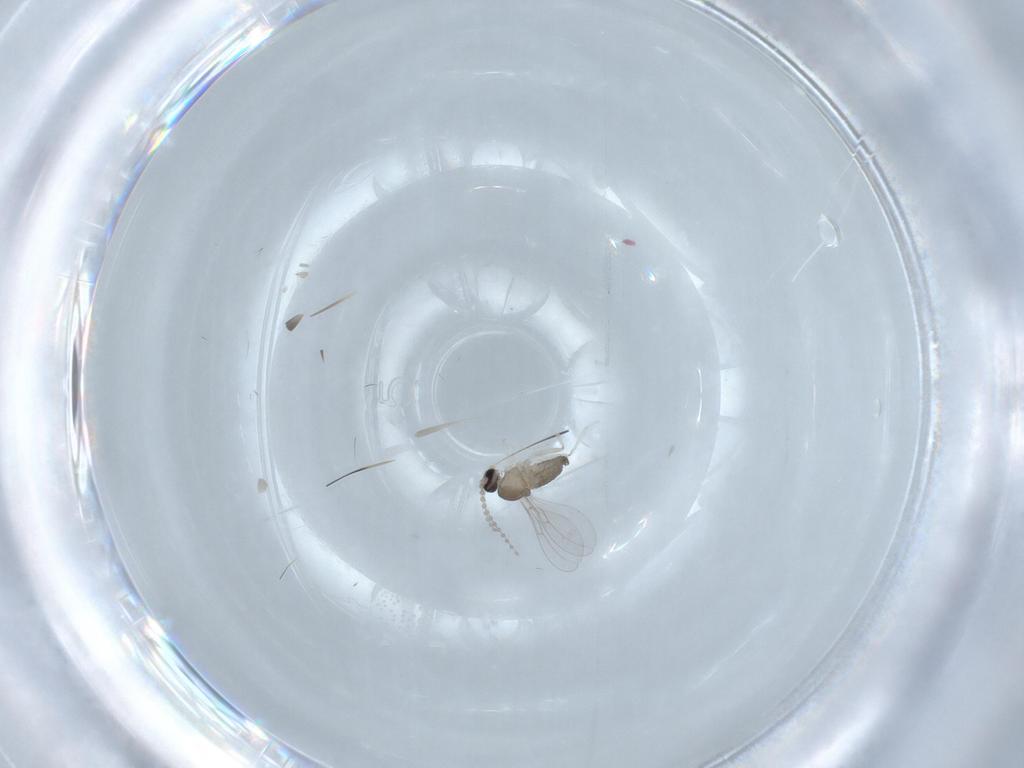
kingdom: Animalia
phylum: Arthropoda
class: Insecta
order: Diptera
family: Cecidomyiidae
